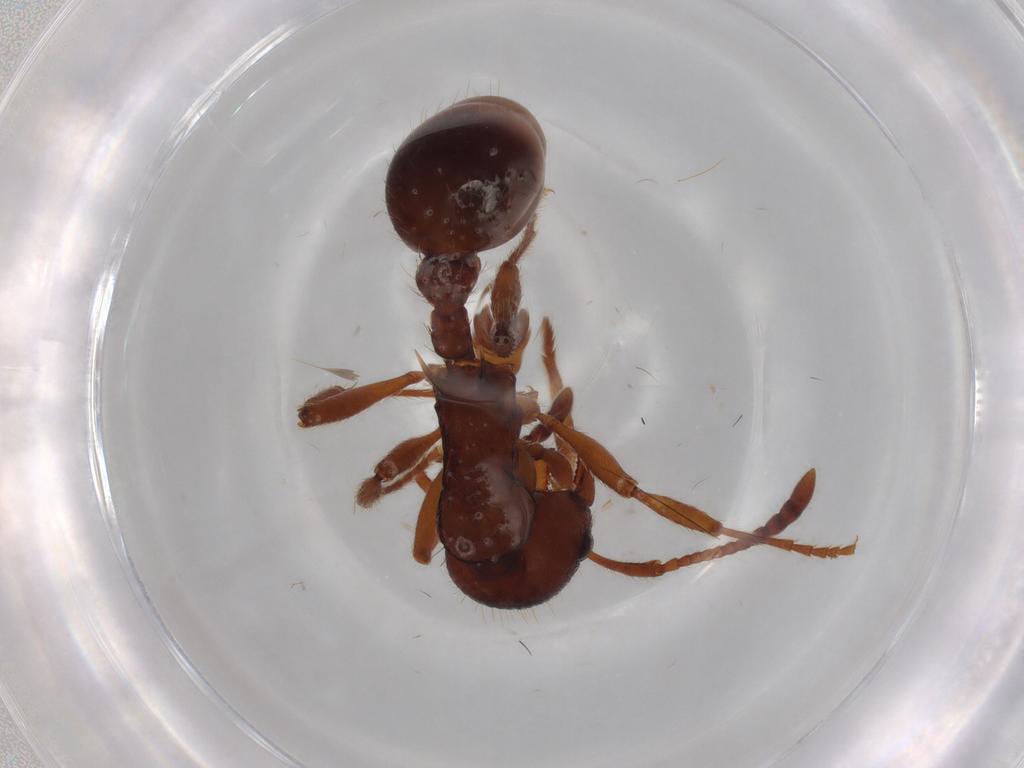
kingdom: Animalia
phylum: Arthropoda
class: Insecta
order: Hymenoptera
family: Formicidae
